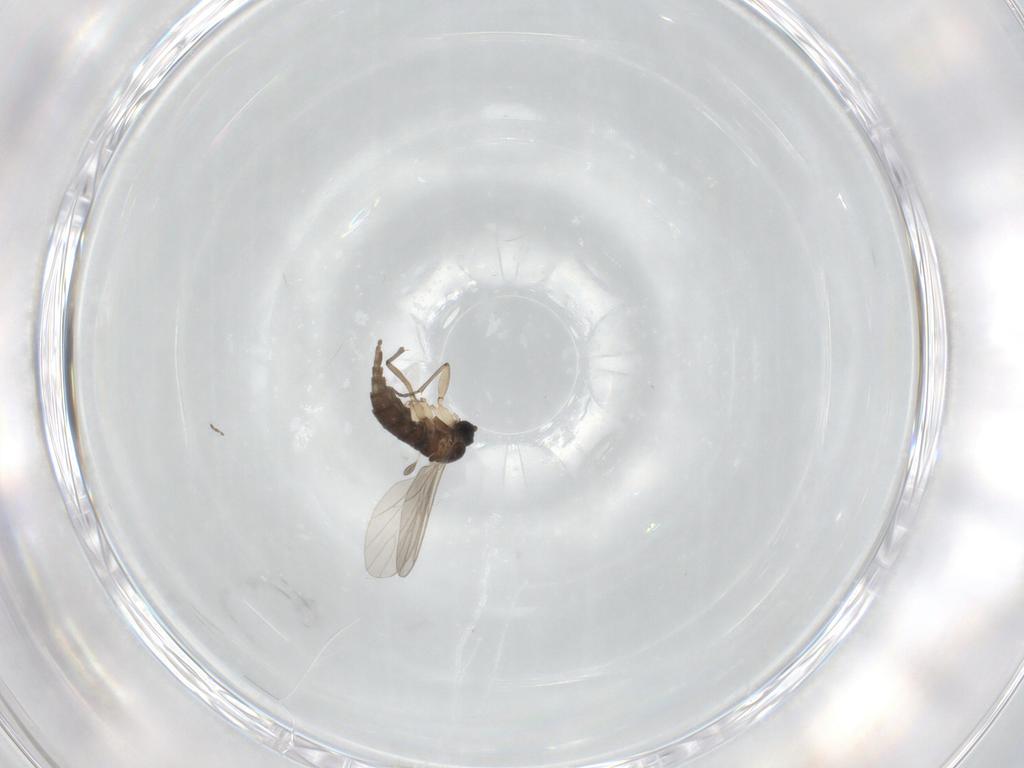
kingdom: Animalia
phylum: Arthropoda
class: Insecta
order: Diptera
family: Sciaridae
